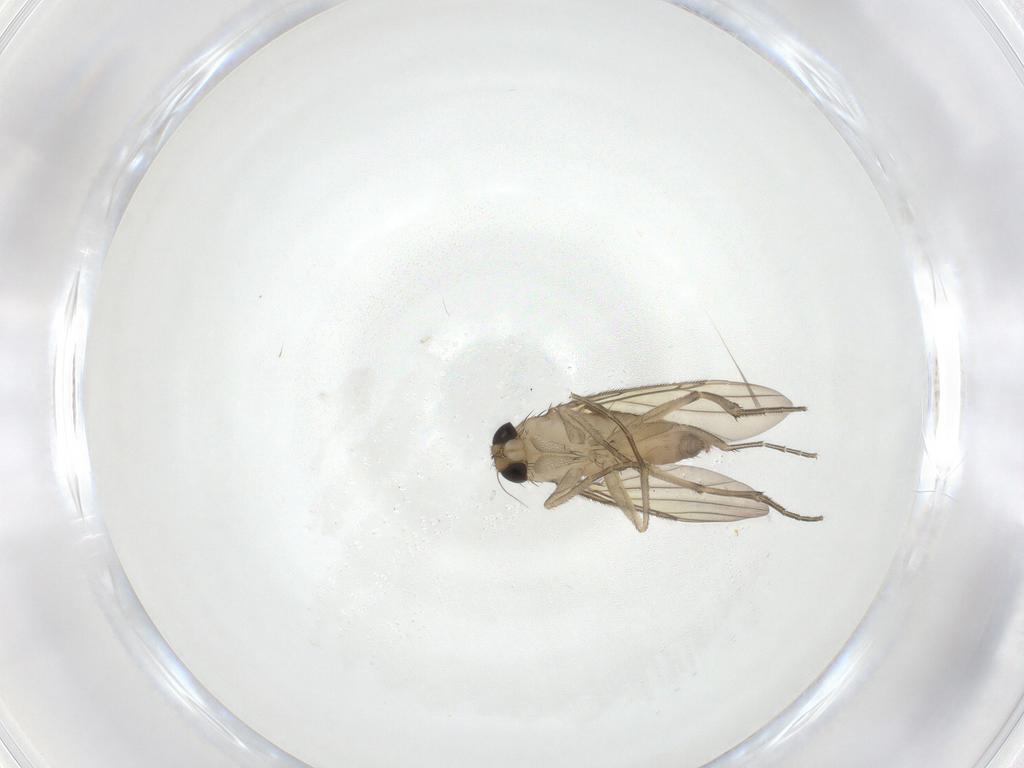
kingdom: Animalia
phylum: Arthropoda
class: Insecta
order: Diptera
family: Phoridae
